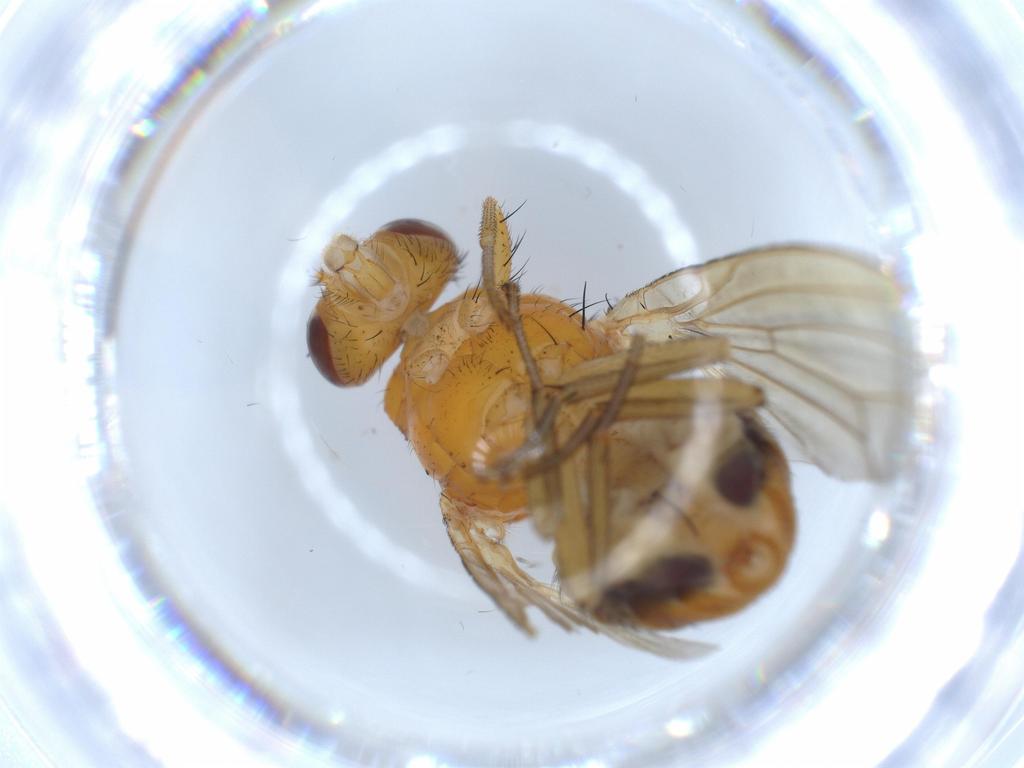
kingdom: Animalia
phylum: Arthropoda
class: Insecta
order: Diptera
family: Lauxaniidae
